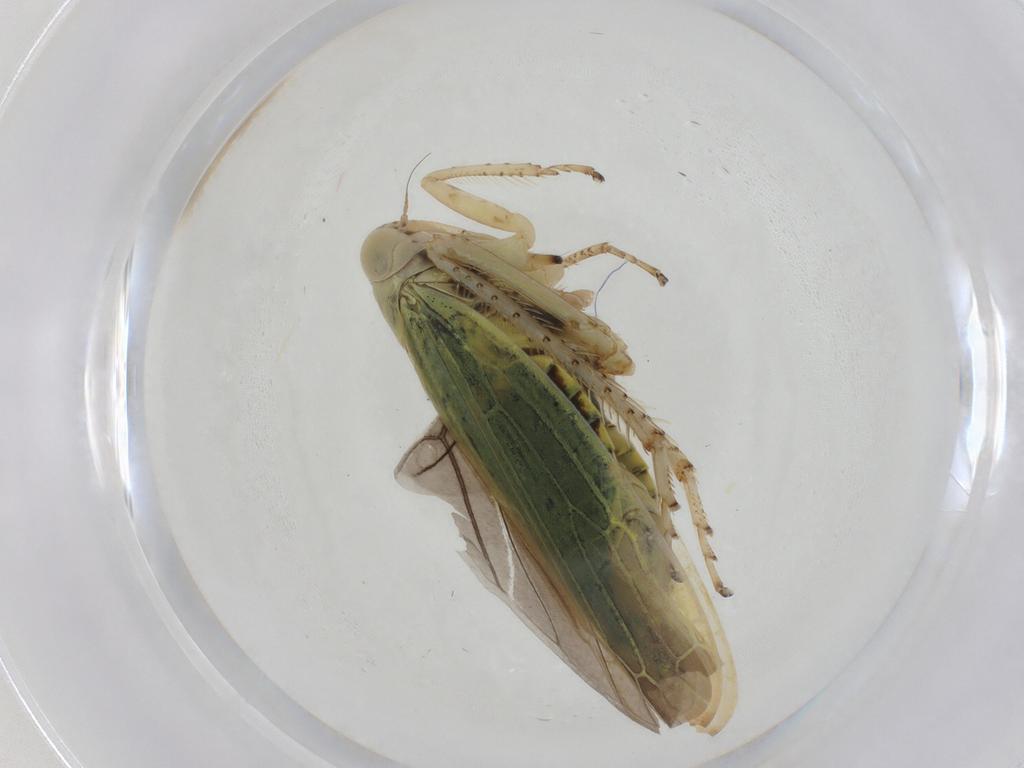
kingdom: Animalia
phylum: Arthropoda
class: Insecta
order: Hemiptera
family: Cicadellidae
